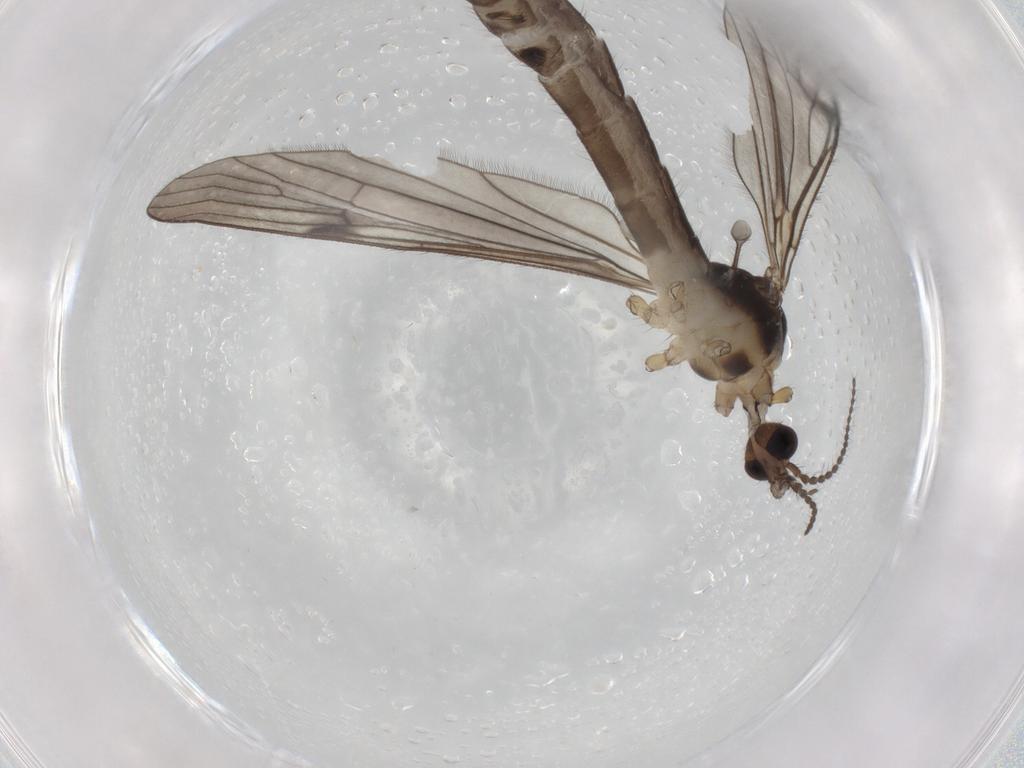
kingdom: Animalia
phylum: Arthropoda
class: Insecta
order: Diptera
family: Limoniidae
